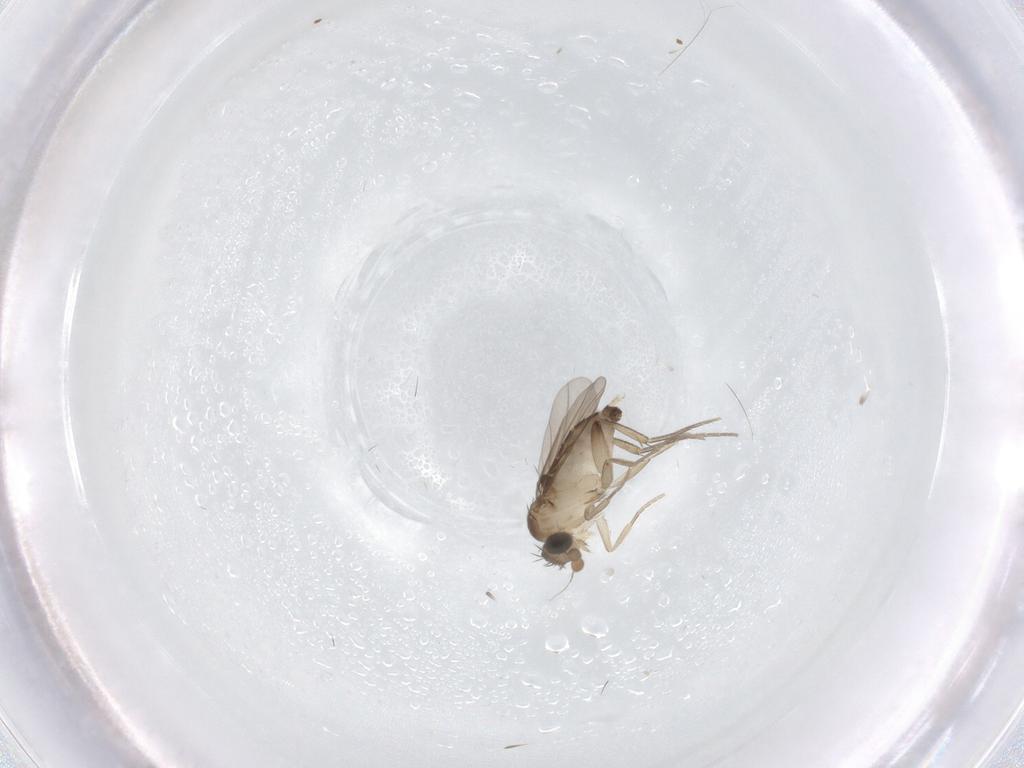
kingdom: Animalia
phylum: Arthropoda
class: Insecta
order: Diptera
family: Phoridae
